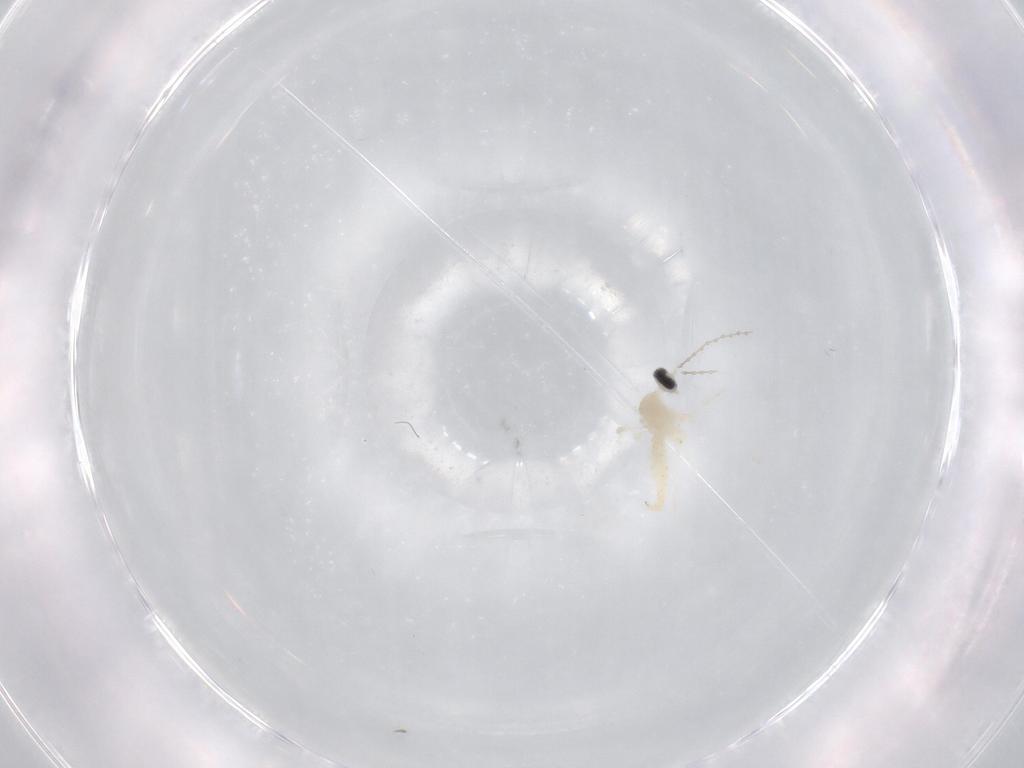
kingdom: Animalia
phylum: Arthropoda
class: Insecta
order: Diptera
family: Cecidomyiidae
